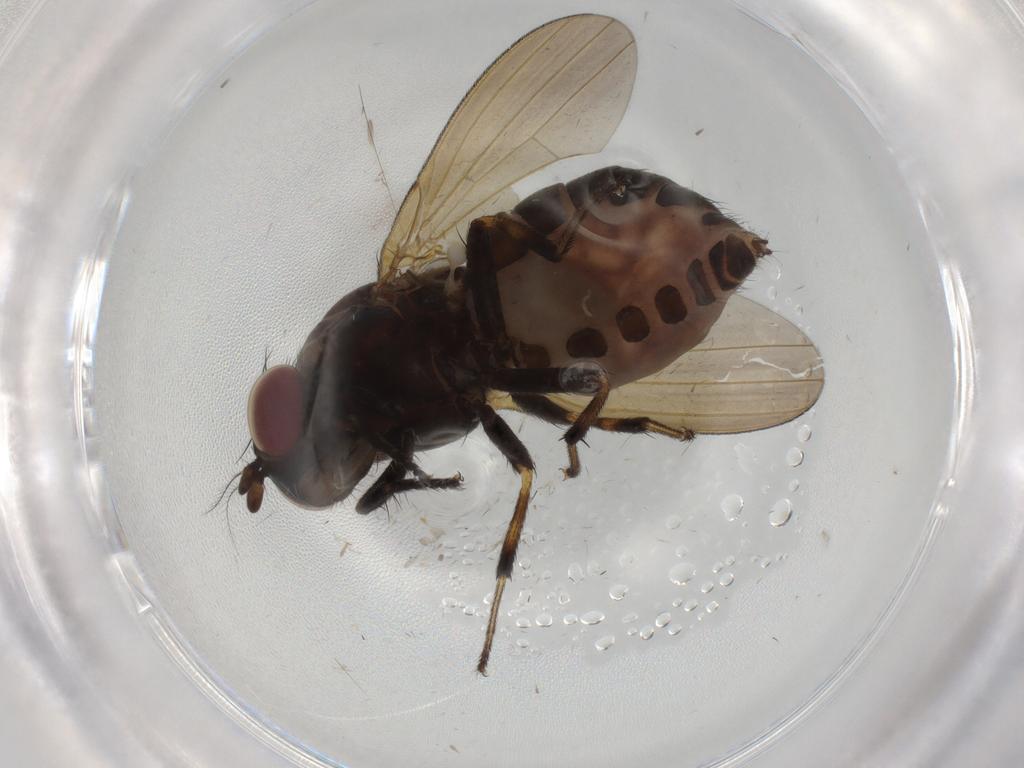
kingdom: Animalia
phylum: Arthropoda
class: Insecta
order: Diptera
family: Lauxaniidae
